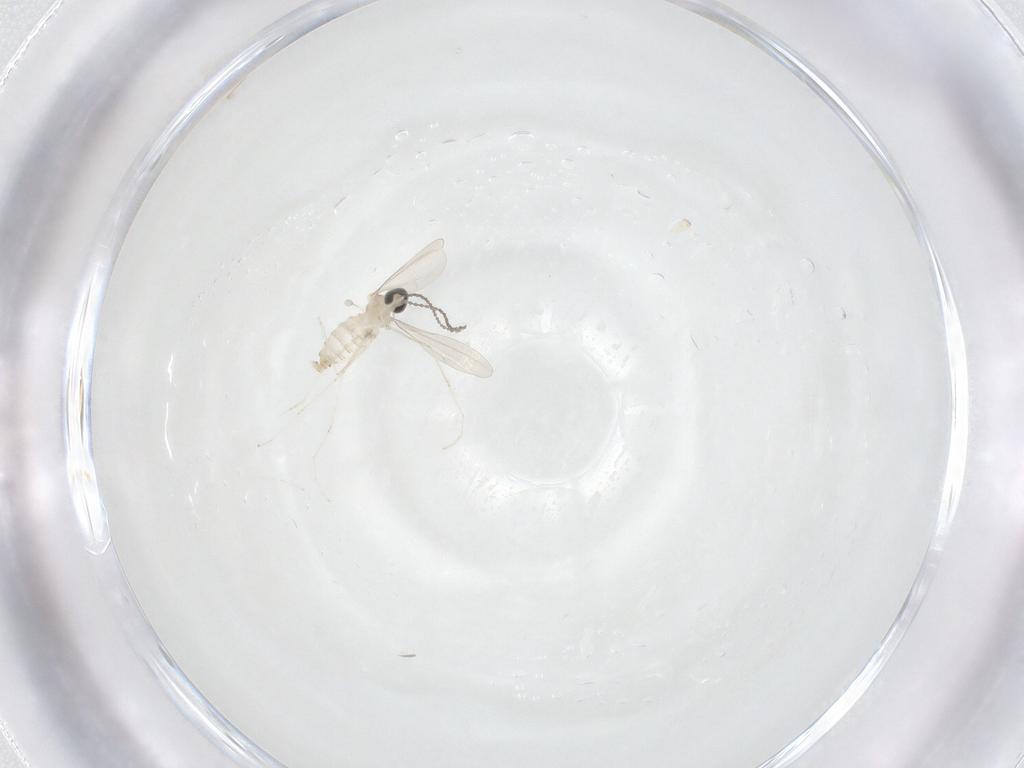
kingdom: Animalia
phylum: Arthropoda
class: Insecta
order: Diptera
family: Cecidomyiidae
